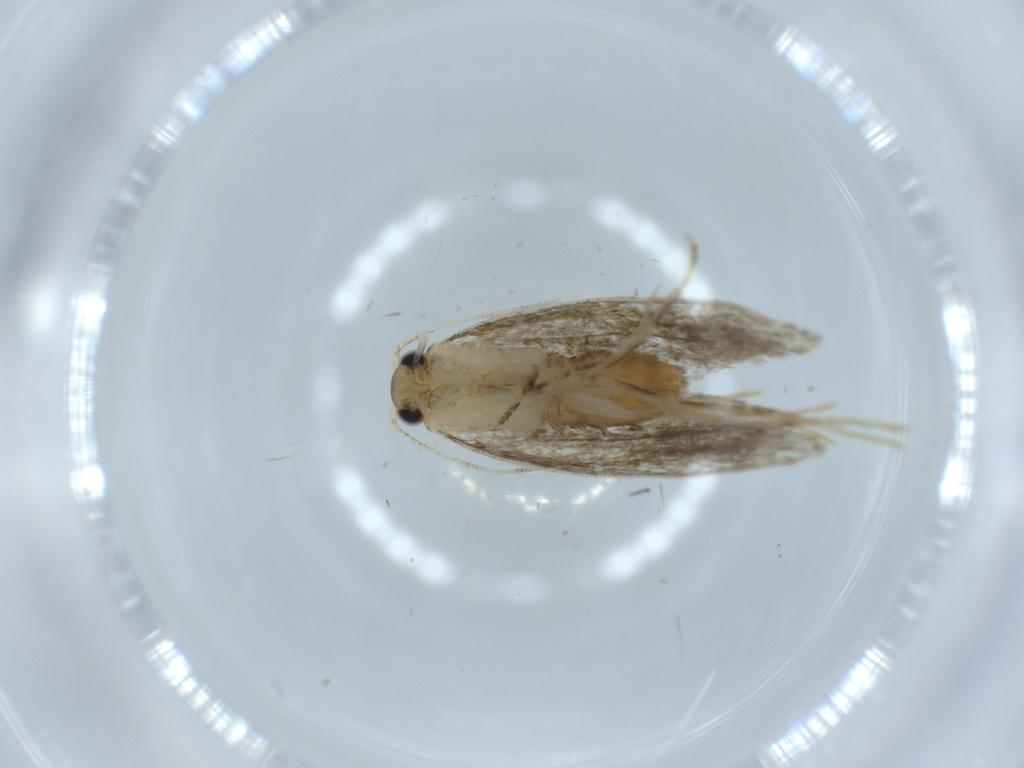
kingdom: Animalia
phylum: Arthropoda
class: Insecta
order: Lepidoptera
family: Tineidae
